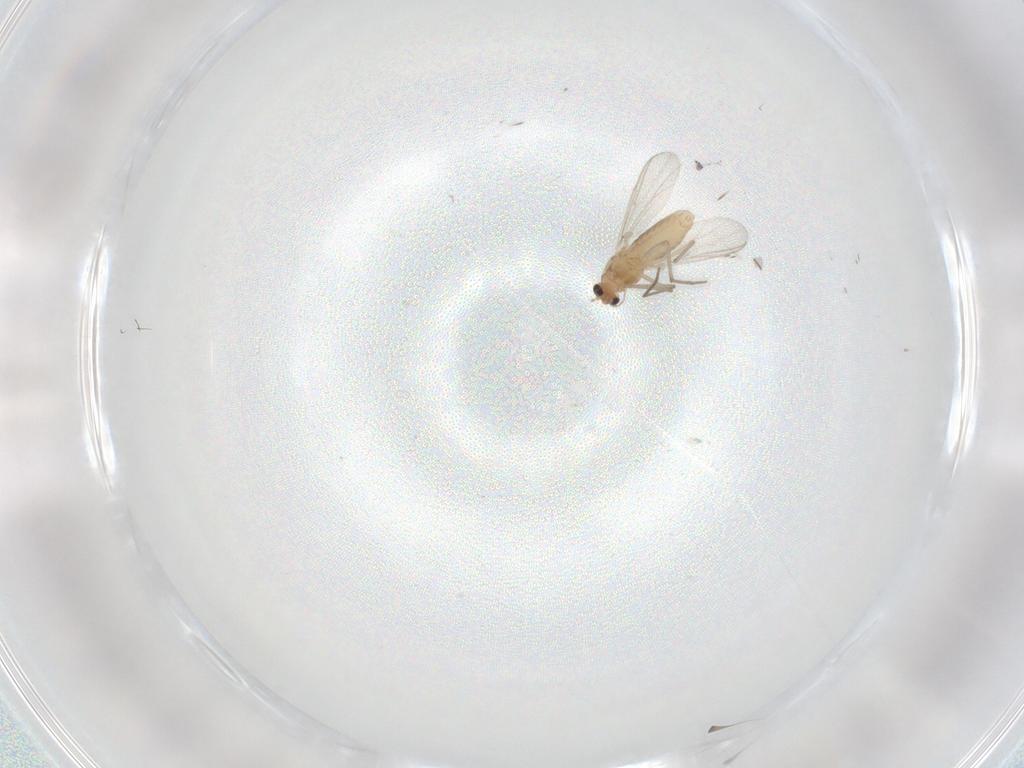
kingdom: Animalia
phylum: Arthropoda
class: Insecta
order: Diptera
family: Chironomidae
